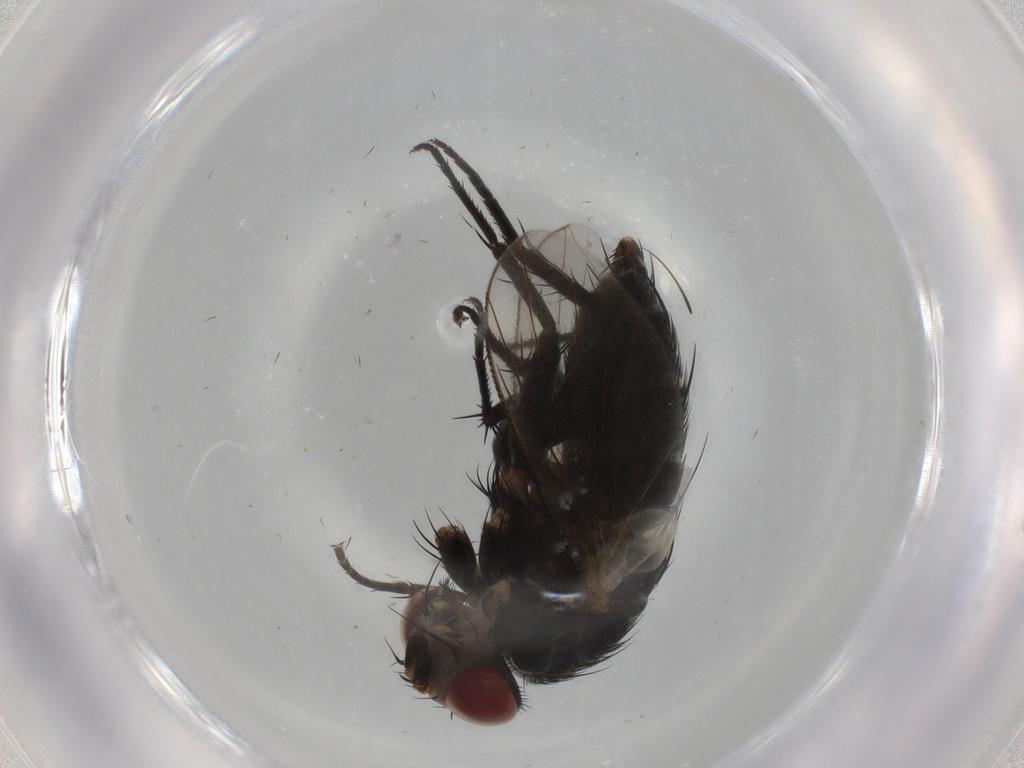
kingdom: Animalia
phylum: Arthropoda
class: Insecta
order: Diptera
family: Tachinidae
